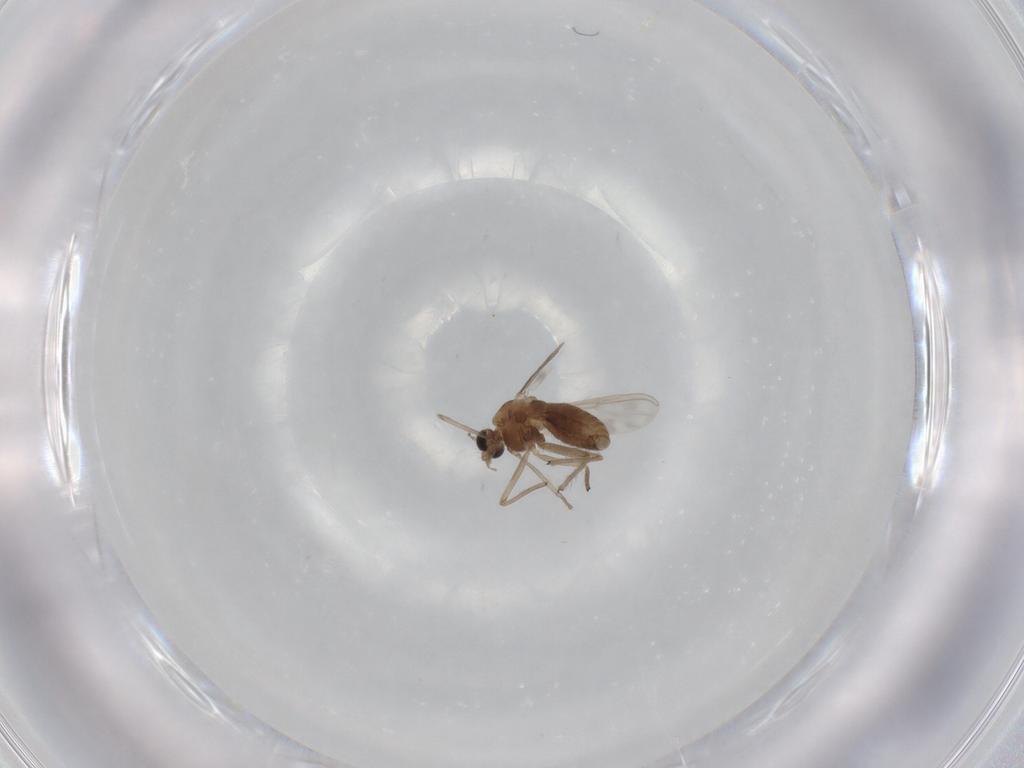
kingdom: Animalia
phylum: Arthropoda
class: Insecta
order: Diptera
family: Chironomidae
